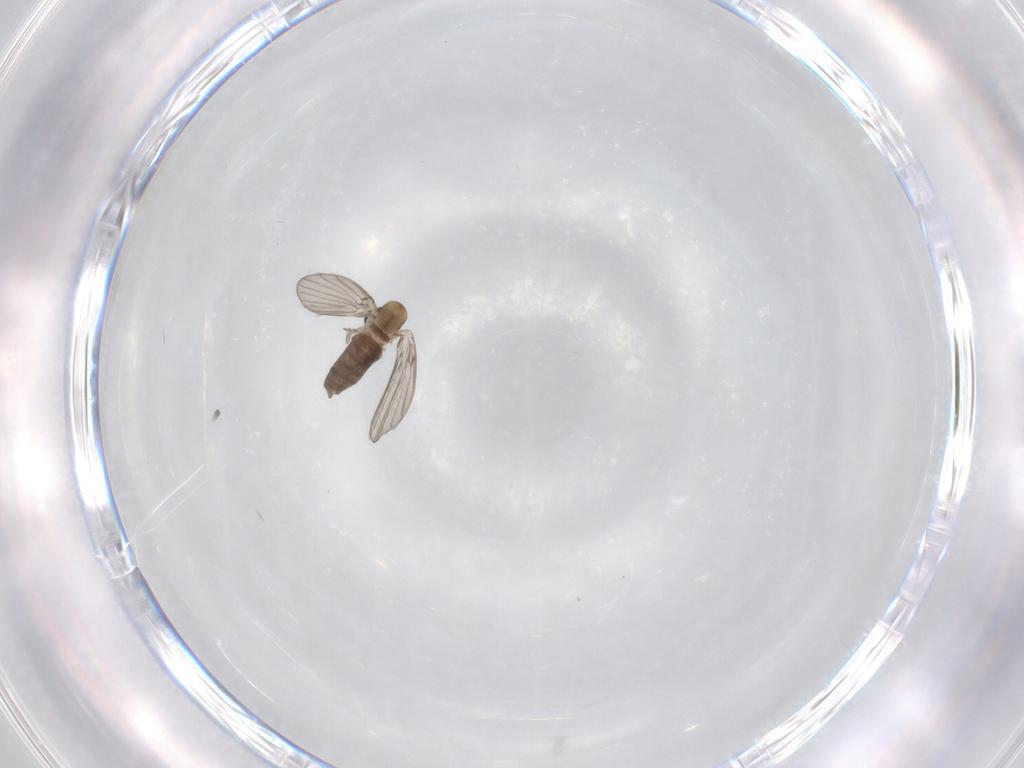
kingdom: Animalia
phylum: Arthropoda
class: Insecta
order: Diptera
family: Psychodidae
